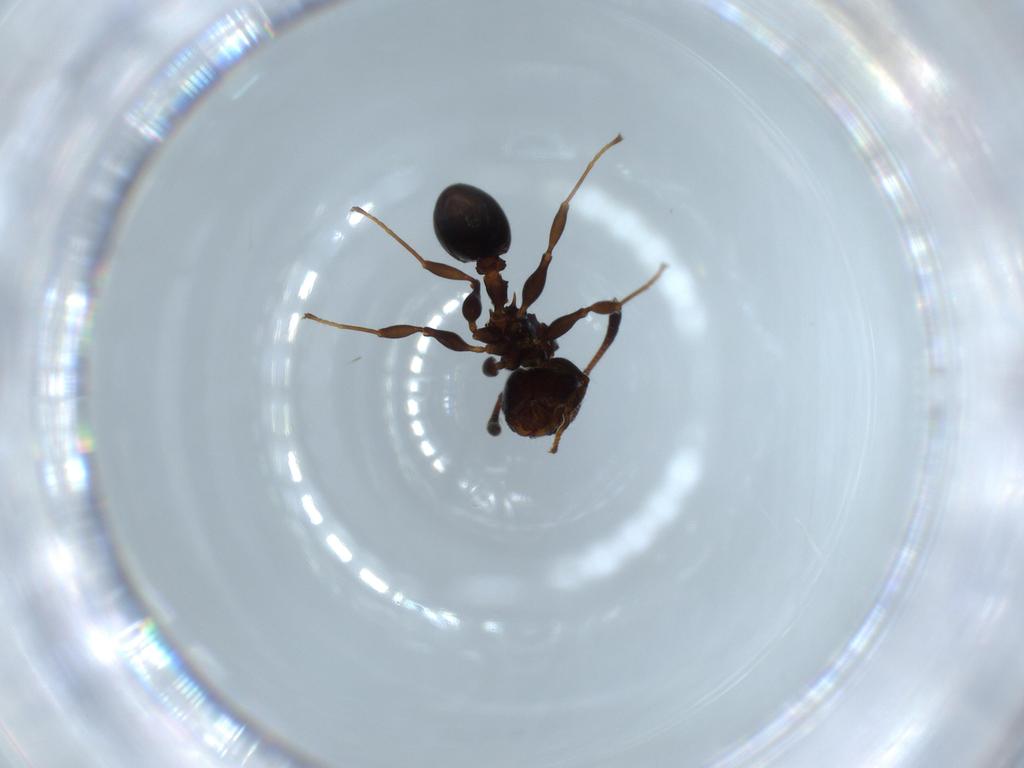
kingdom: Animalia
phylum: Arthropoda
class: Insecta
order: Hymenoptera
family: Formicidae
